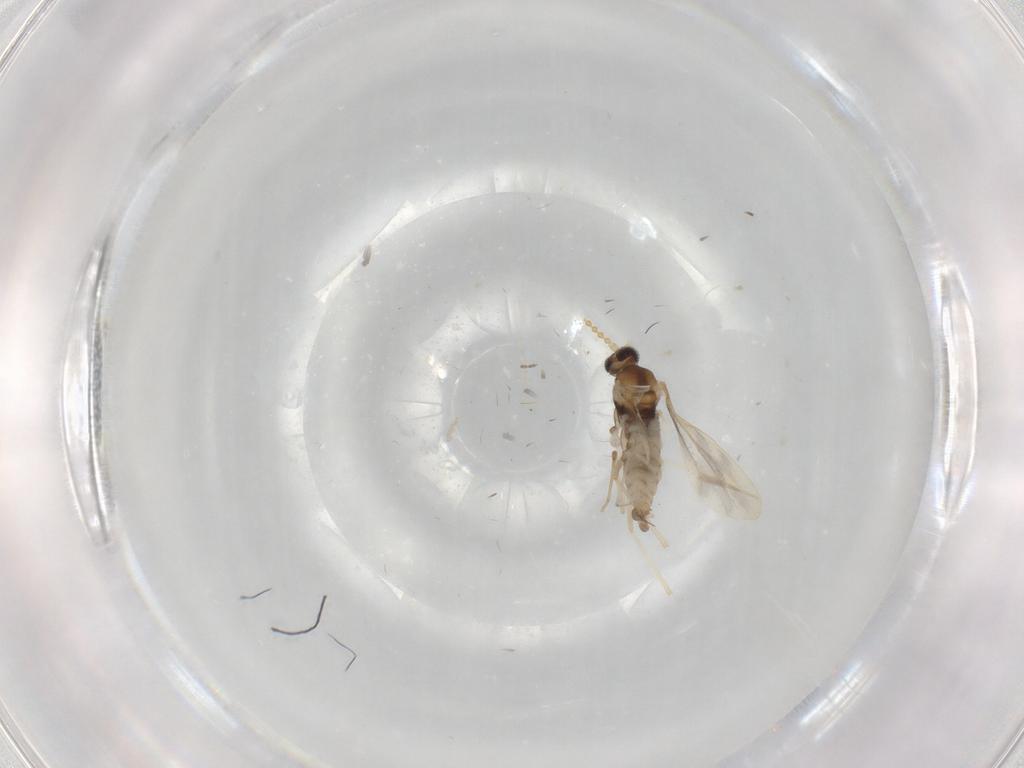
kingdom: Animalia
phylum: Arthropoda
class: Insecta
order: Diptera
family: Cecidomyiidae
